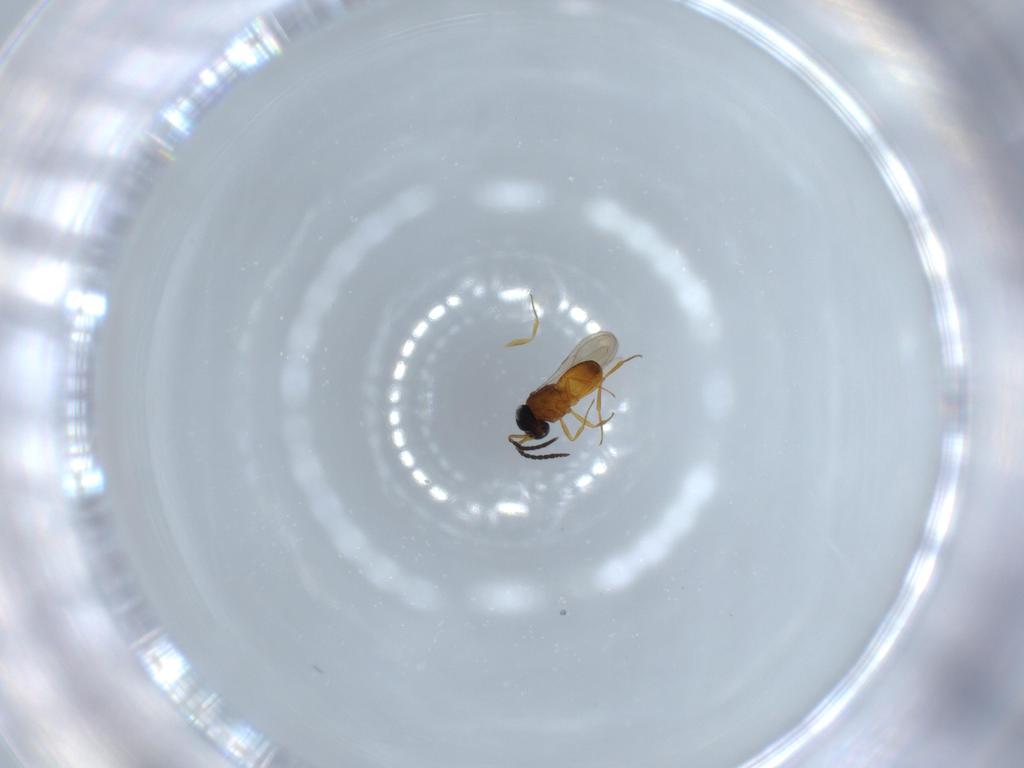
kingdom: Animalia
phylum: Arthropoda
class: Insecta
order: Hymenoptera
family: Scelionidae
